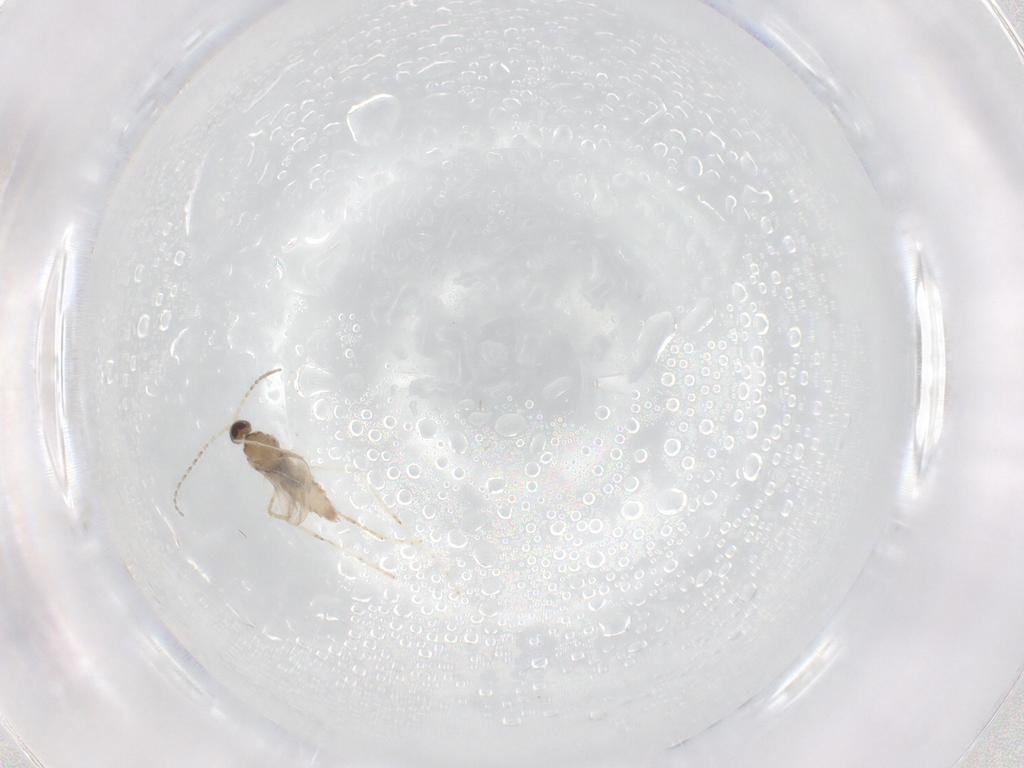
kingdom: Animalia
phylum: Arthropoda
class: Insecta
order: Diptera
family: Cecidomyiidae
